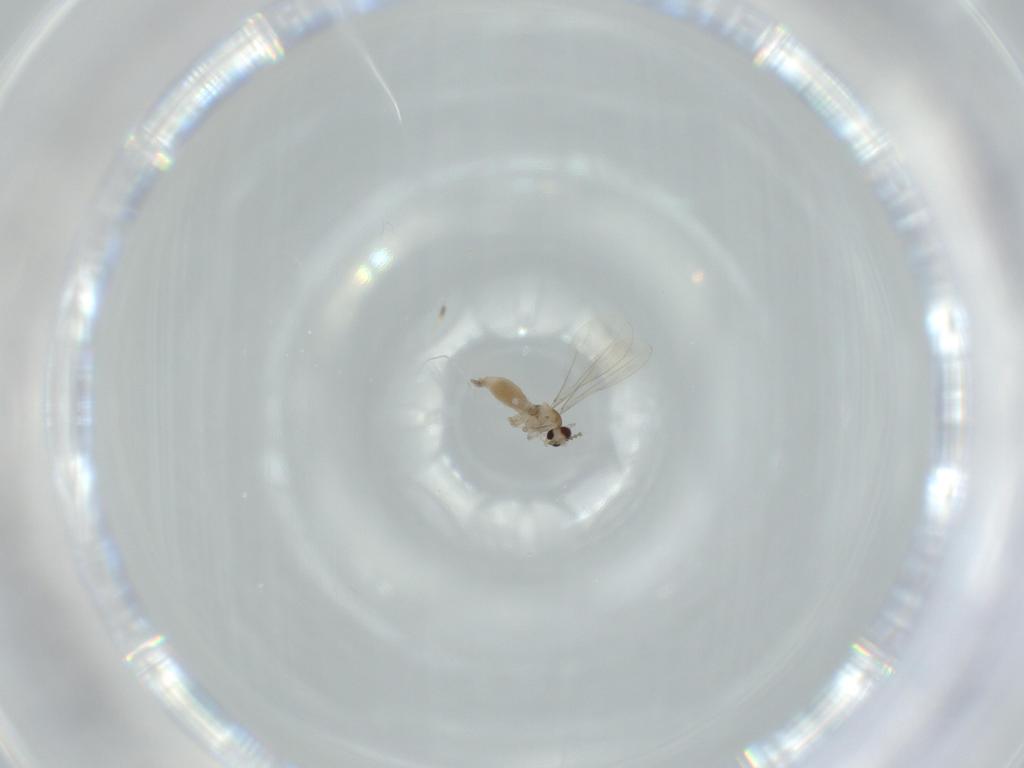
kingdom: Animalia
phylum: Arthropoda
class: Insecta
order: Diptera
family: Cecidomyiidae
